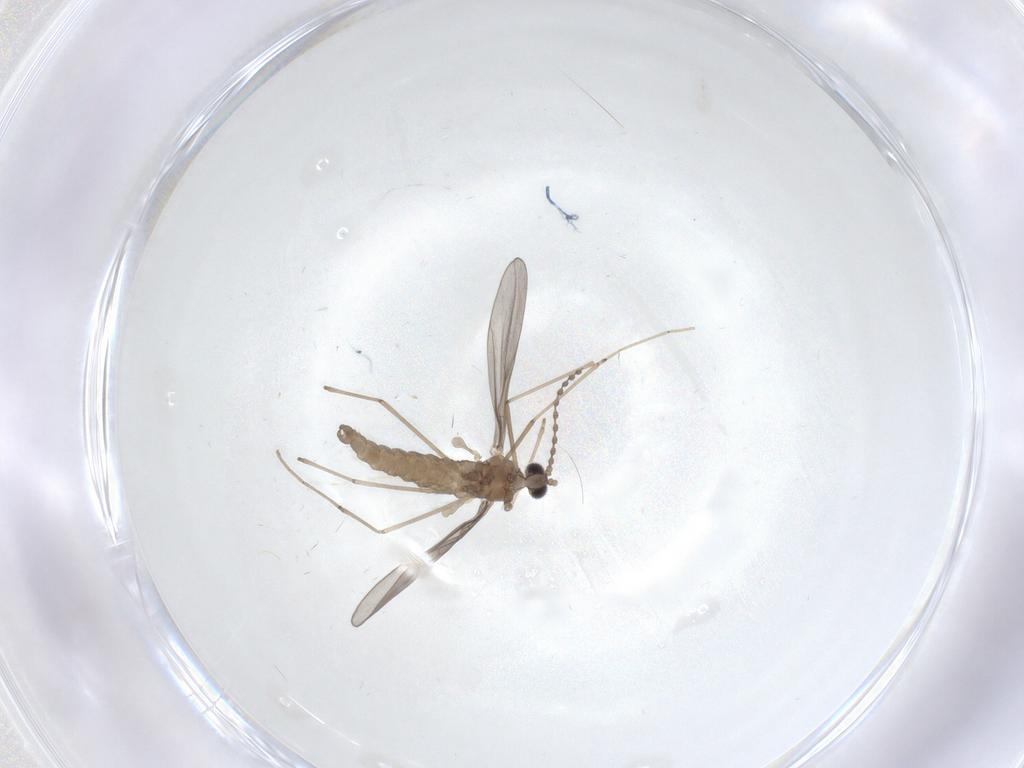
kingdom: Animalia
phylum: Arthropoda
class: Insecta
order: Diptera
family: Cecidomyiidae
